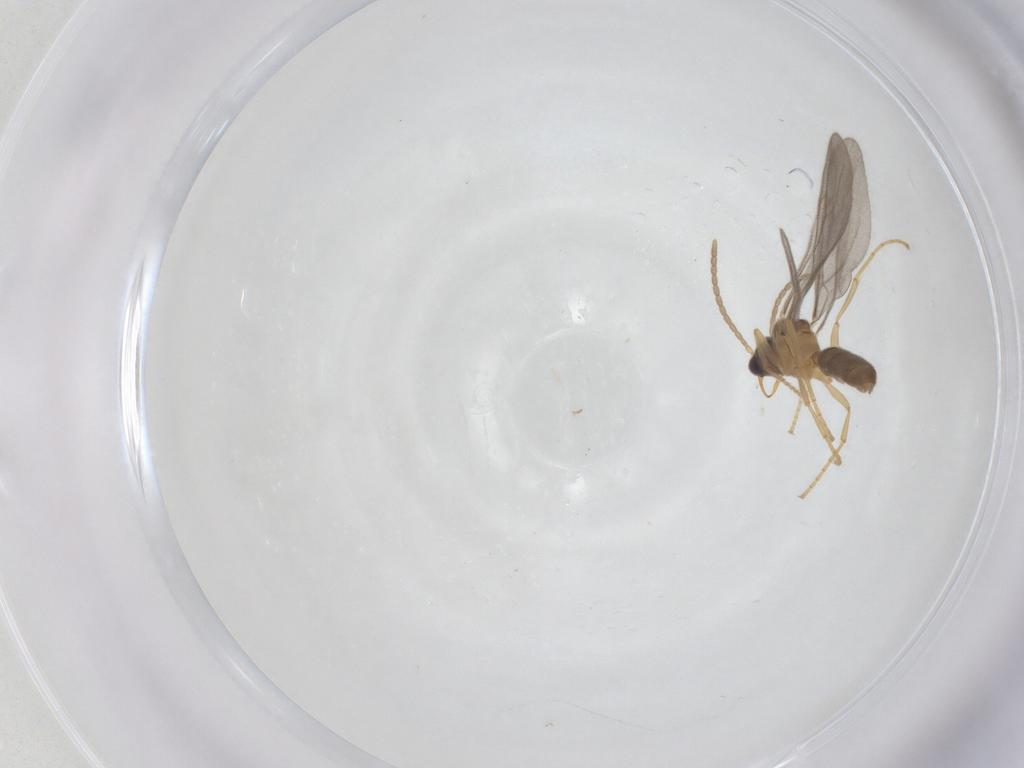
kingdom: Animalia
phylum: Arthropoda
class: Insecta
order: Hymenoptera
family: Formicidae
